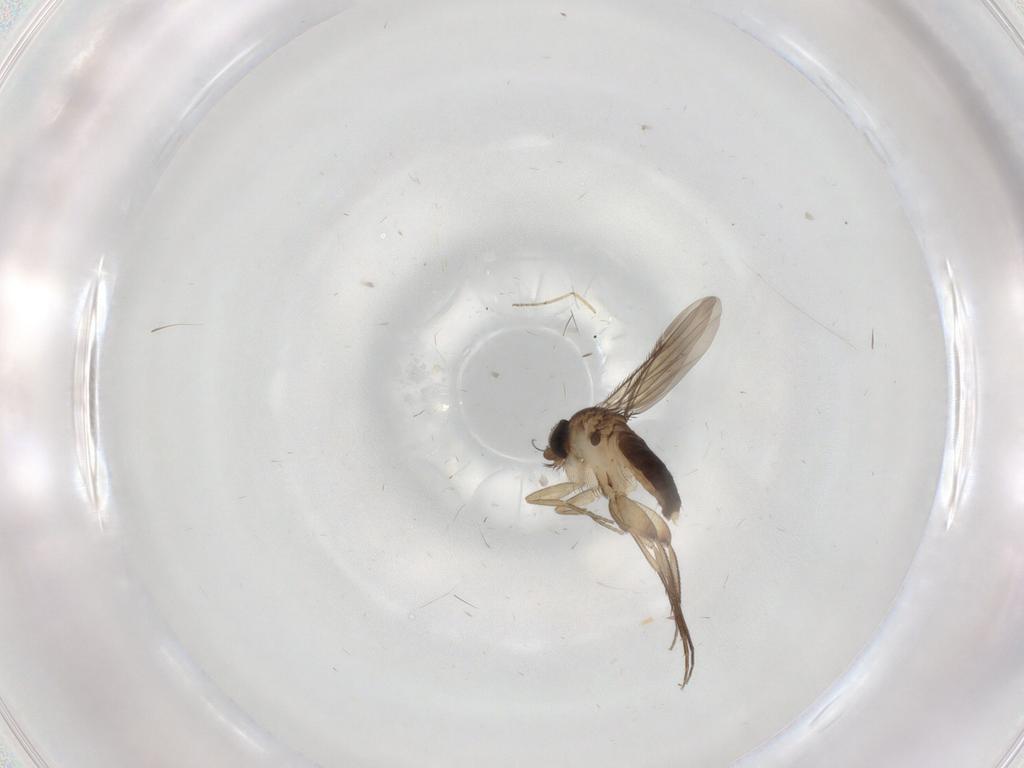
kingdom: Animalia
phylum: Arthropoda
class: Insecta
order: Diptera
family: Phoridae
